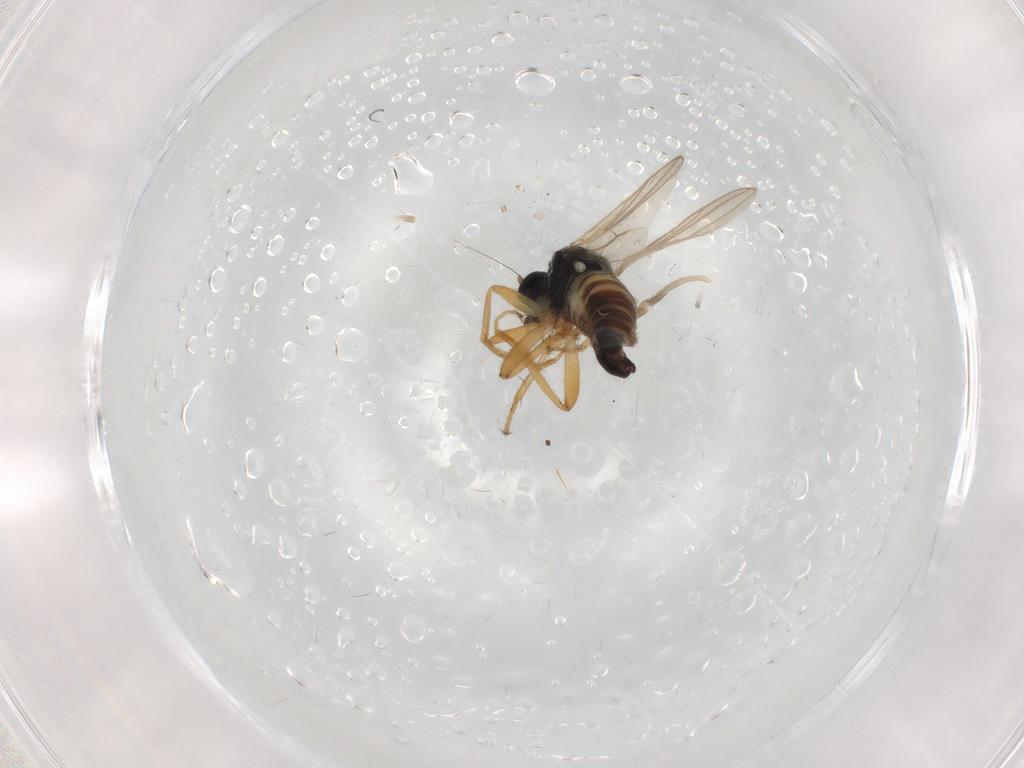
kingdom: Animalia
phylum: Arthropoda
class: Insecta
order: Diptera
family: Hybotidae
